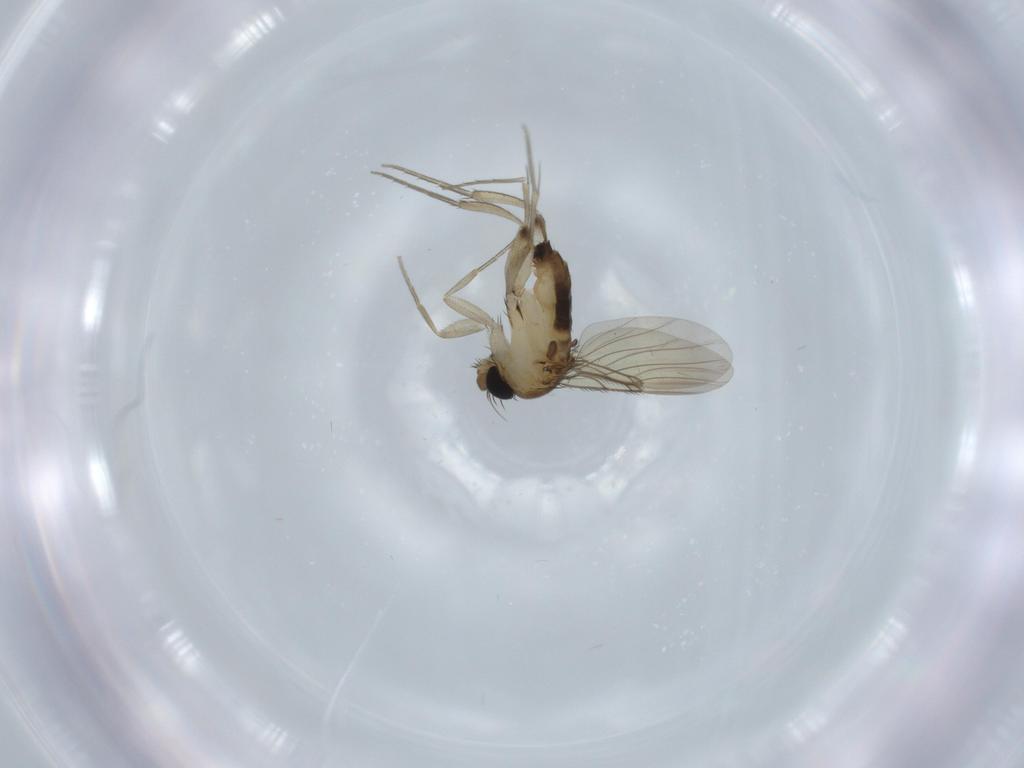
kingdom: Animalia
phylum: Arthropoda
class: Insecta
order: Diptera
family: Phoridae
